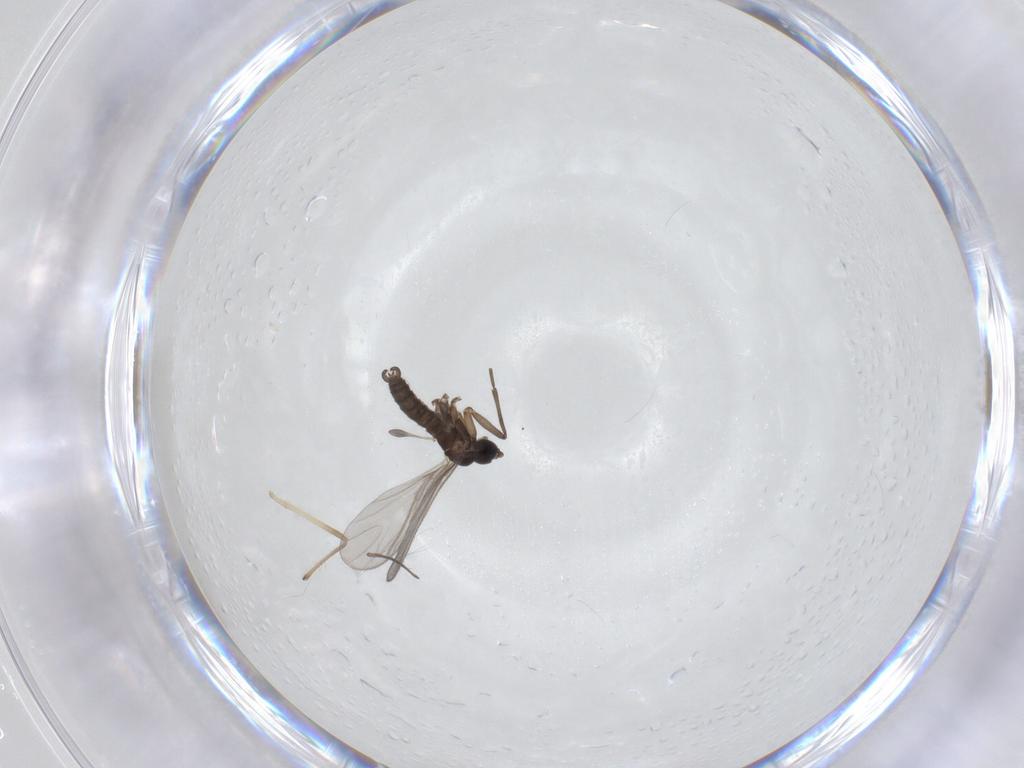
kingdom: Animalia
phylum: Arthropoda
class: Insecta
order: Diptera
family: Sciaridae
